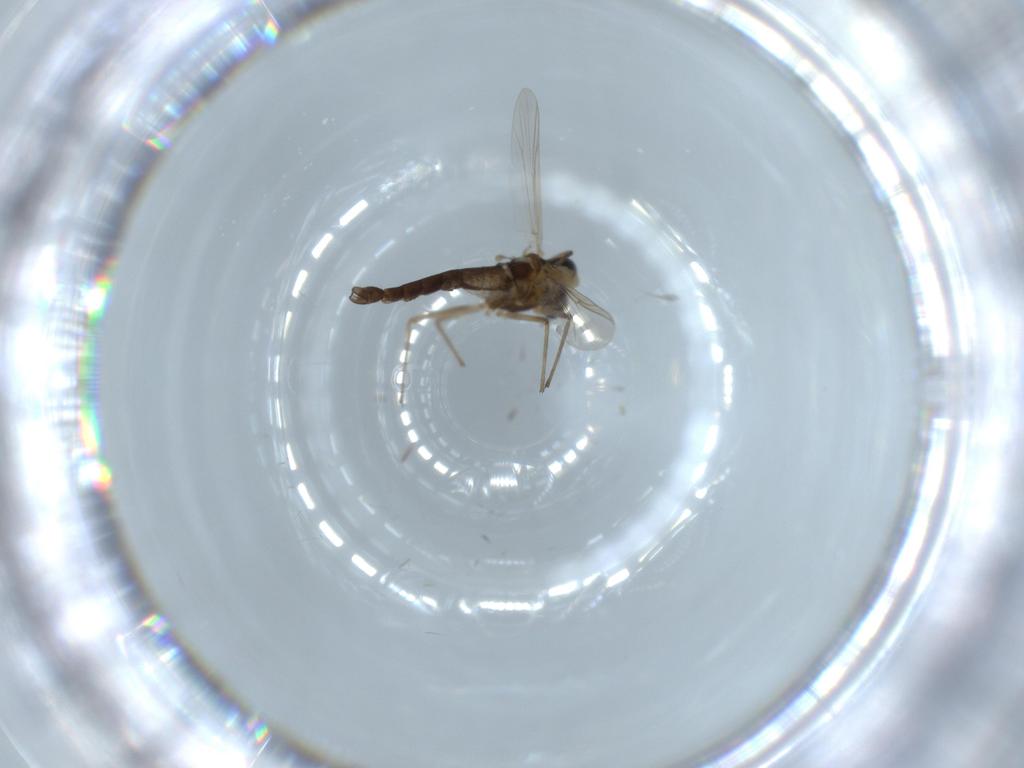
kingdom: Animalia
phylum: Arthropoda
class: Insecta
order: Diptera
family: Chironomidae
